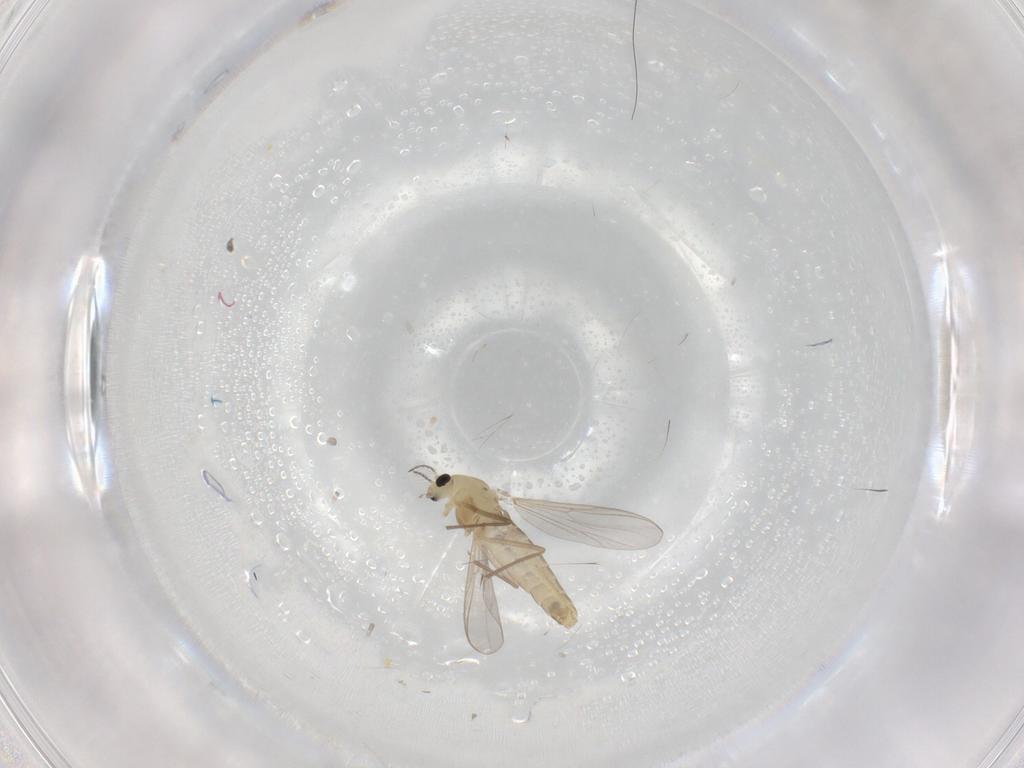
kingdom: Animalia
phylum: Arthropoda
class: Insecta
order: Diptera
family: Chironomidae
